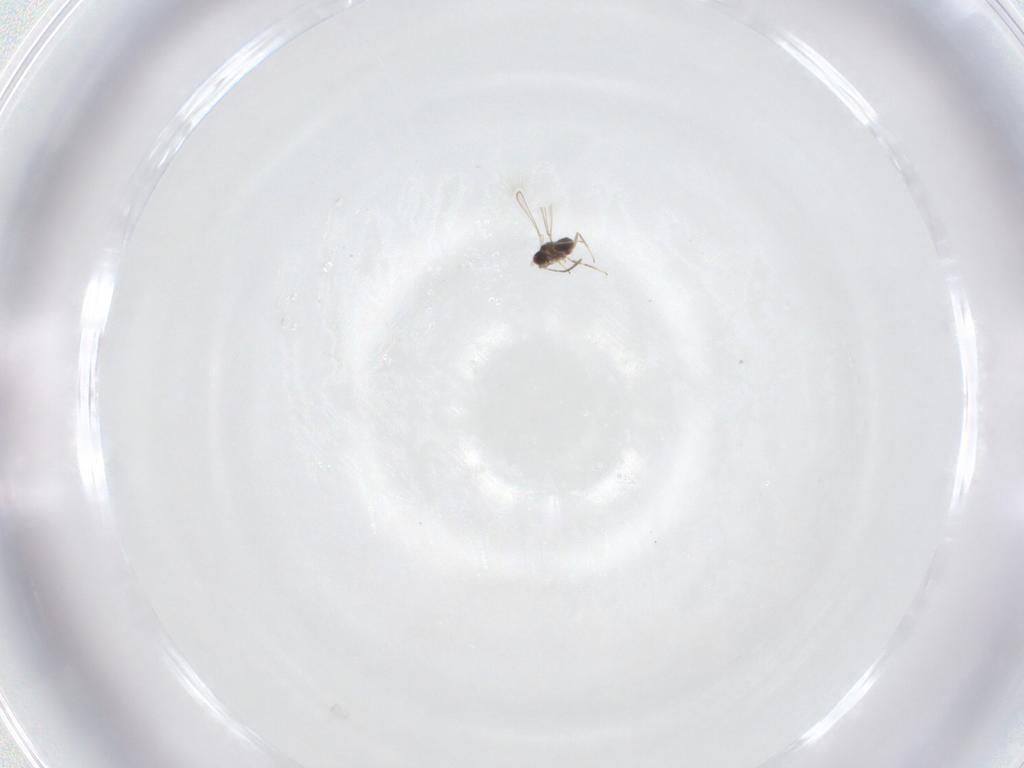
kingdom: Animalia
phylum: Arthropoda
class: Insecta
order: Hymenoptera
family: Mymaridae
